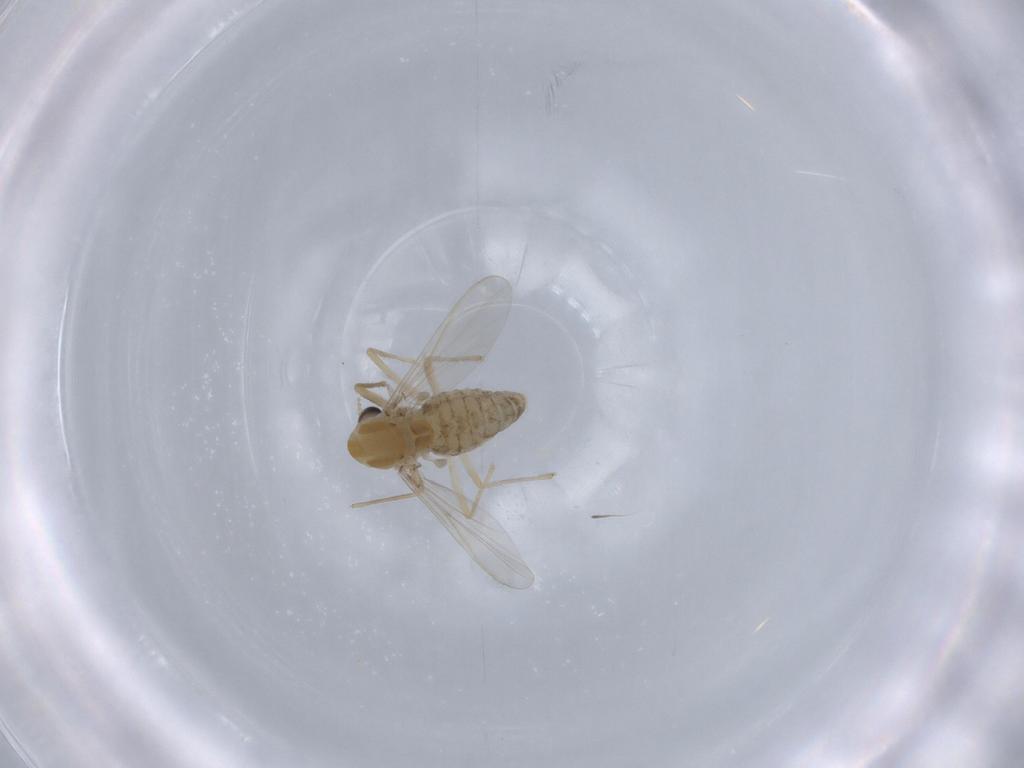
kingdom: Animalia
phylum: Arthropoda
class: Insecta
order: Diptera
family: Chironomidae
